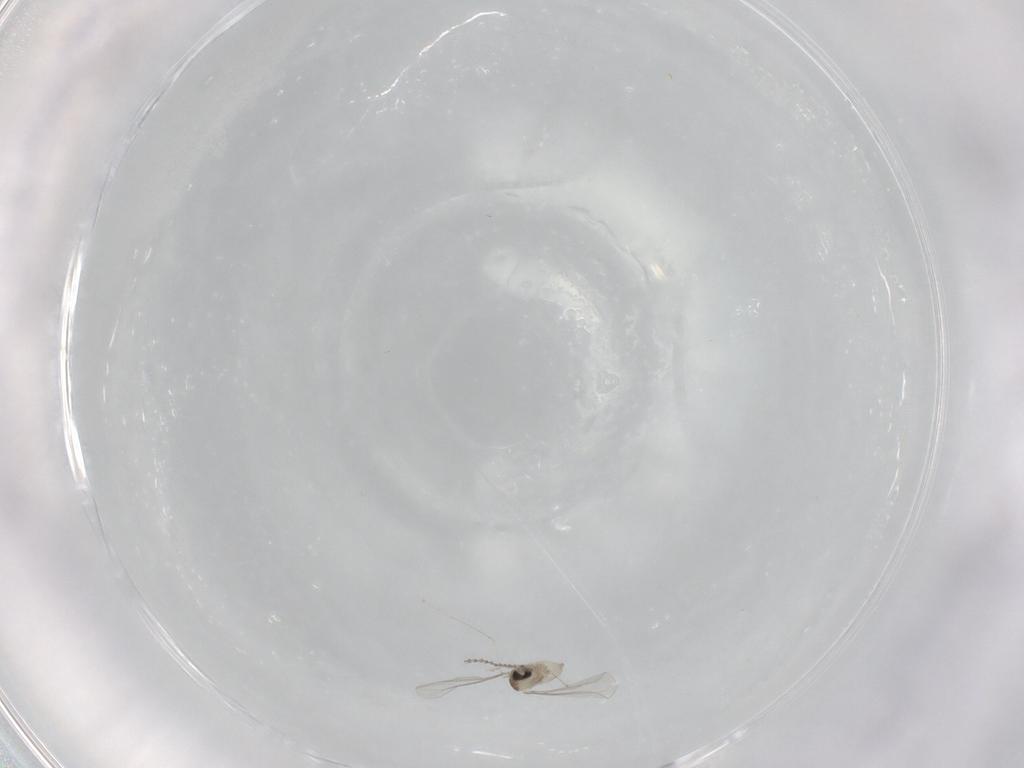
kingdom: Animalia
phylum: Arthropoda
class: Insecta
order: Diptera
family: Cecidomyiidae
